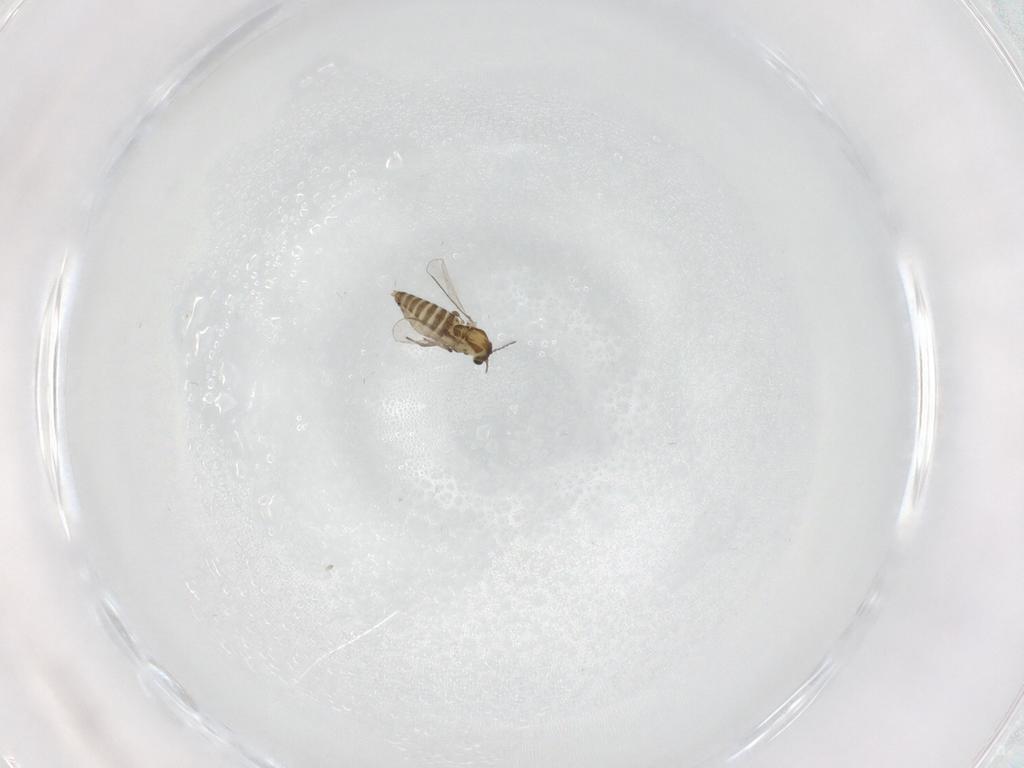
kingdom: Animalia
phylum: Arthropoda
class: Insecta
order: Diptera
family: Chironomidae
